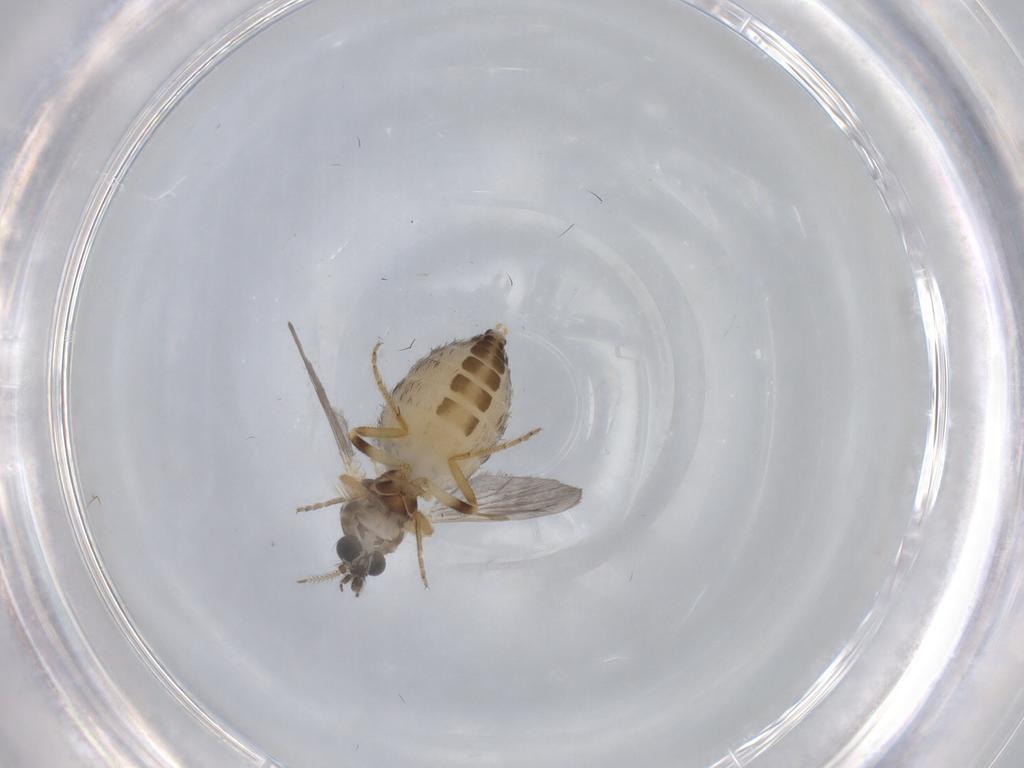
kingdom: Animalia
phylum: Arthropoda
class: Insecta
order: Diptera
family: Ceratopogonidae
